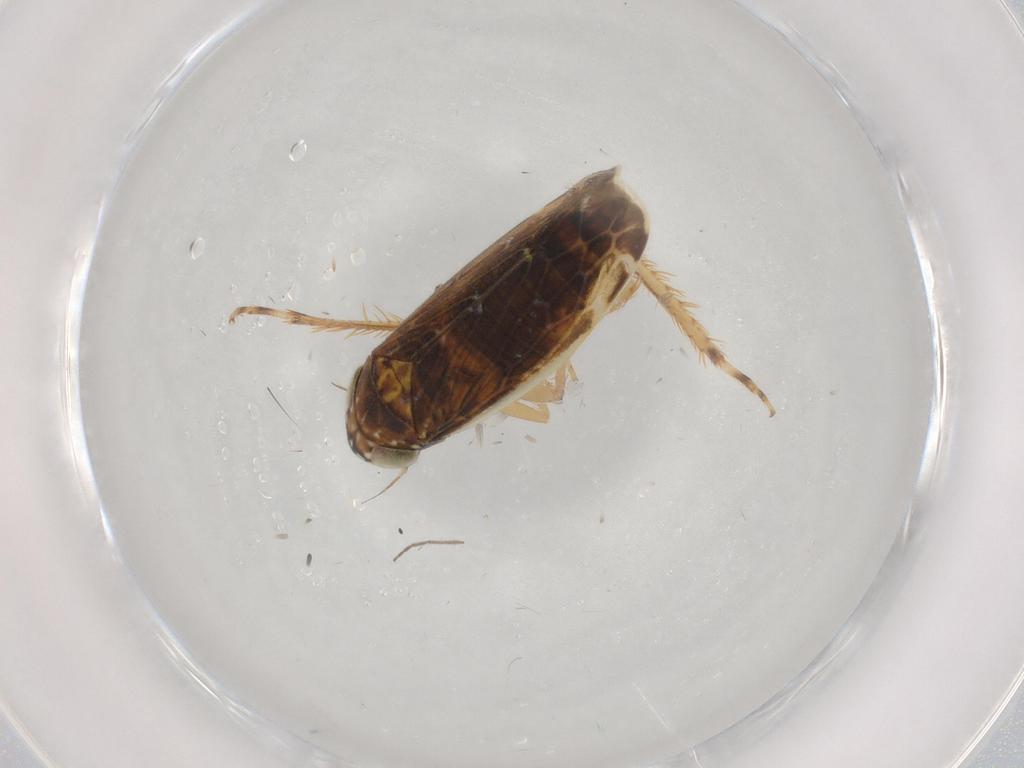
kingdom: Animalia
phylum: Arthropoda
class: Insecta
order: Hemiptera
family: Cicadellidae
